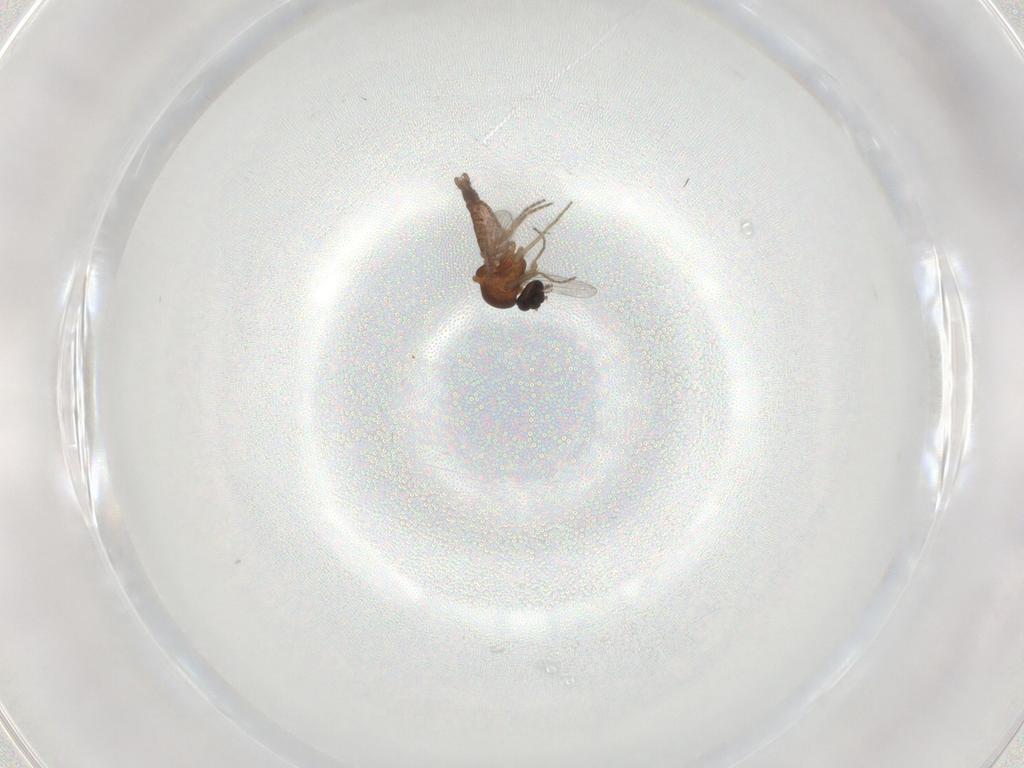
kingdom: Animalia
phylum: Arthropoda
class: Insecta
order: Diptera
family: Ceratopogonidae
